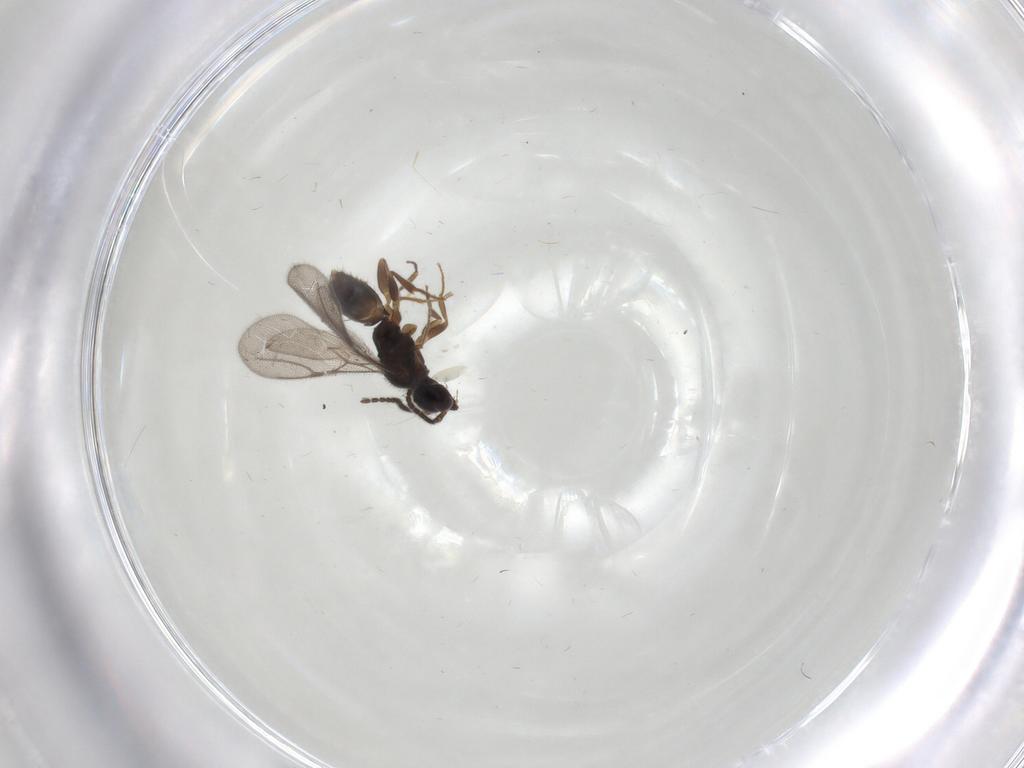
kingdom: Animalia
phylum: Arthropoda
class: Insecta
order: Hymenoptera
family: Bethylidae
